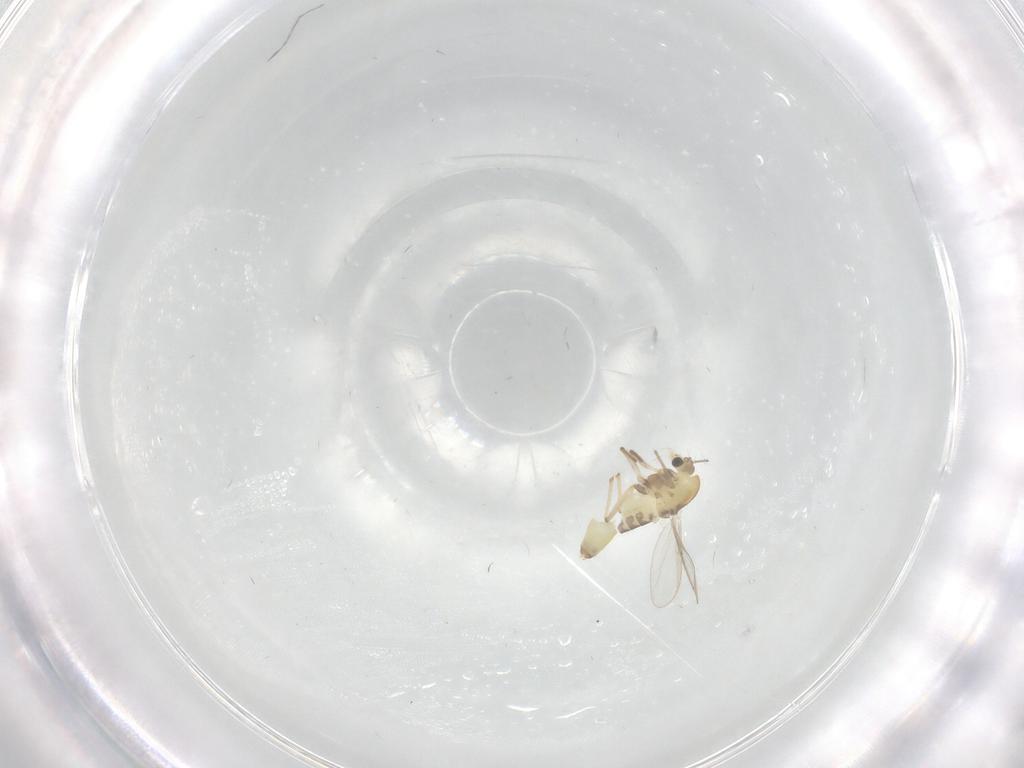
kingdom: Animalia
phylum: Arthropoda
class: Insecta
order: Diptera
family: Chironomidae
